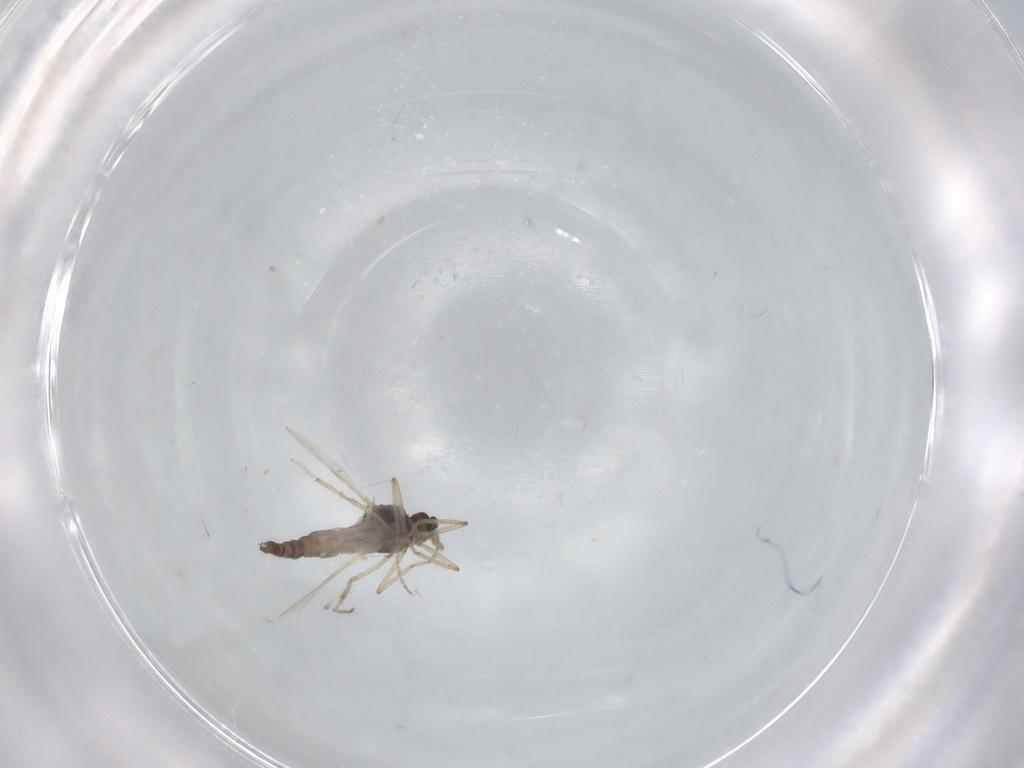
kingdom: Animalia
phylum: Arthropoda
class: Insecta
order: Diptera
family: Ceratopogonidae
